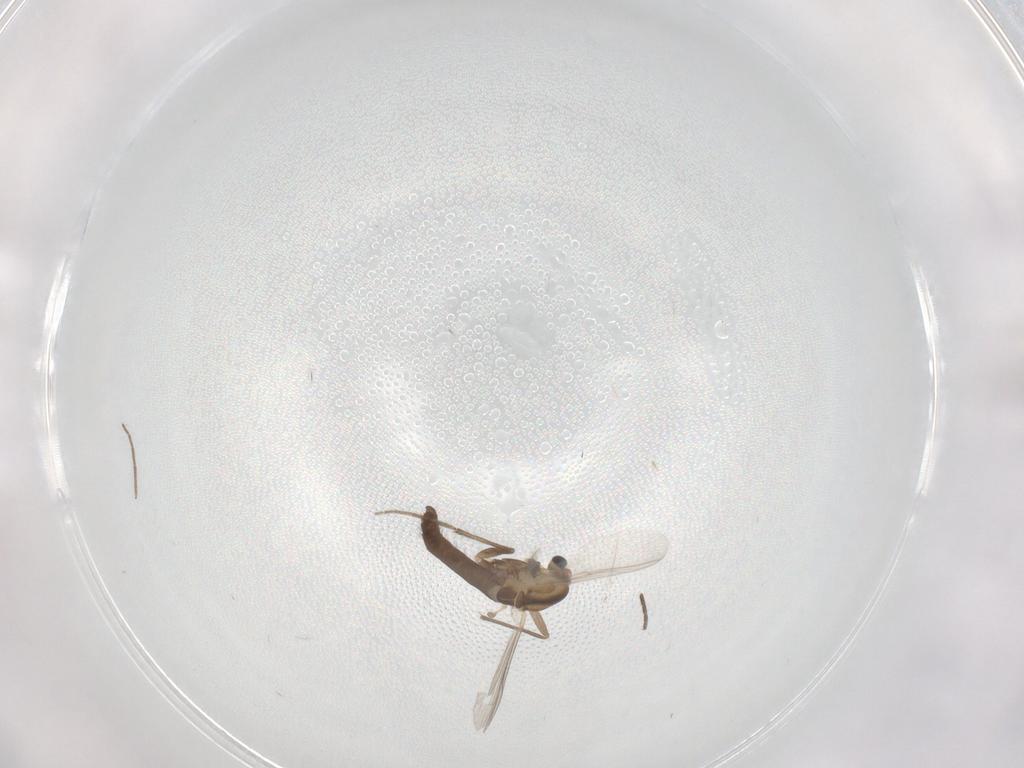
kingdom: Animalia
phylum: Arthropoda
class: Insecta
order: Diptera
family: Chironomidae
